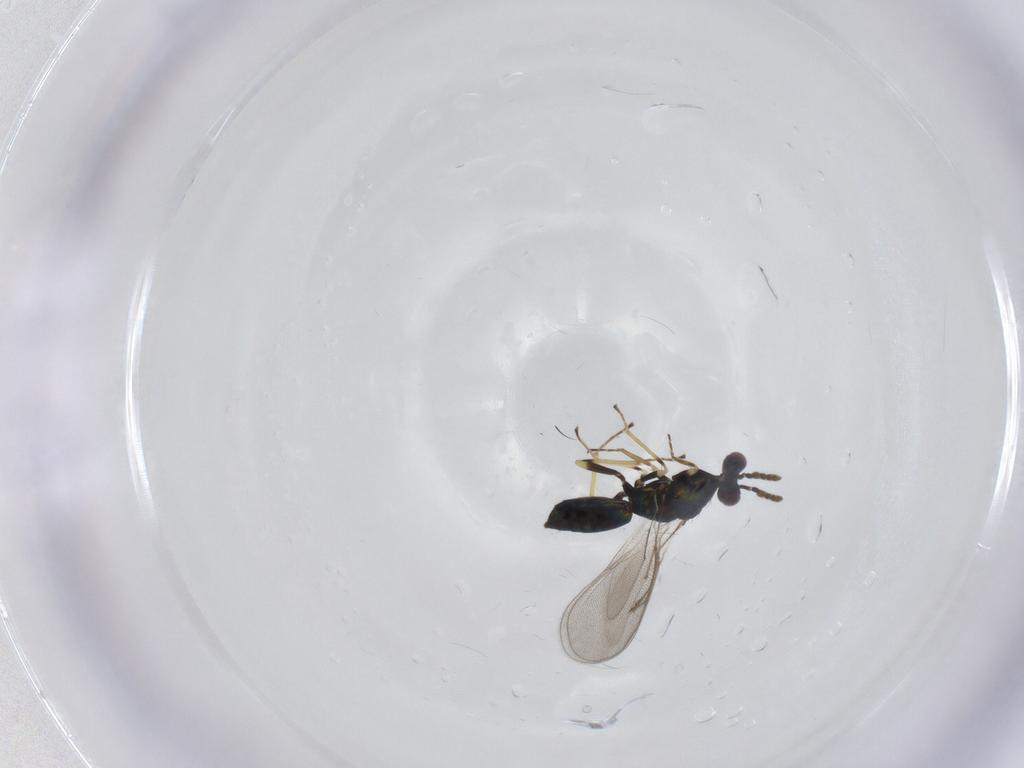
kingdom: Animalia
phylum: Arthropoda
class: Insecta
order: Hymenoptera
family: Eulophidae
